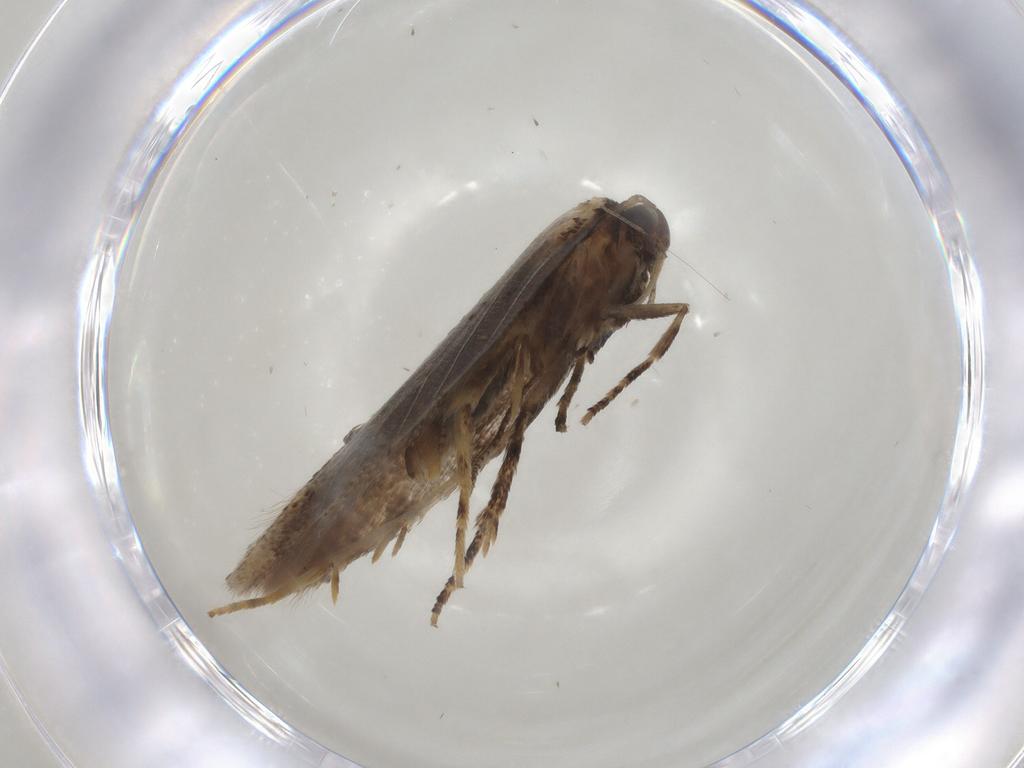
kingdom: Animalia
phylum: Arthropoda
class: Insecta
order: Lepidoptera
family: Gelechiidae
